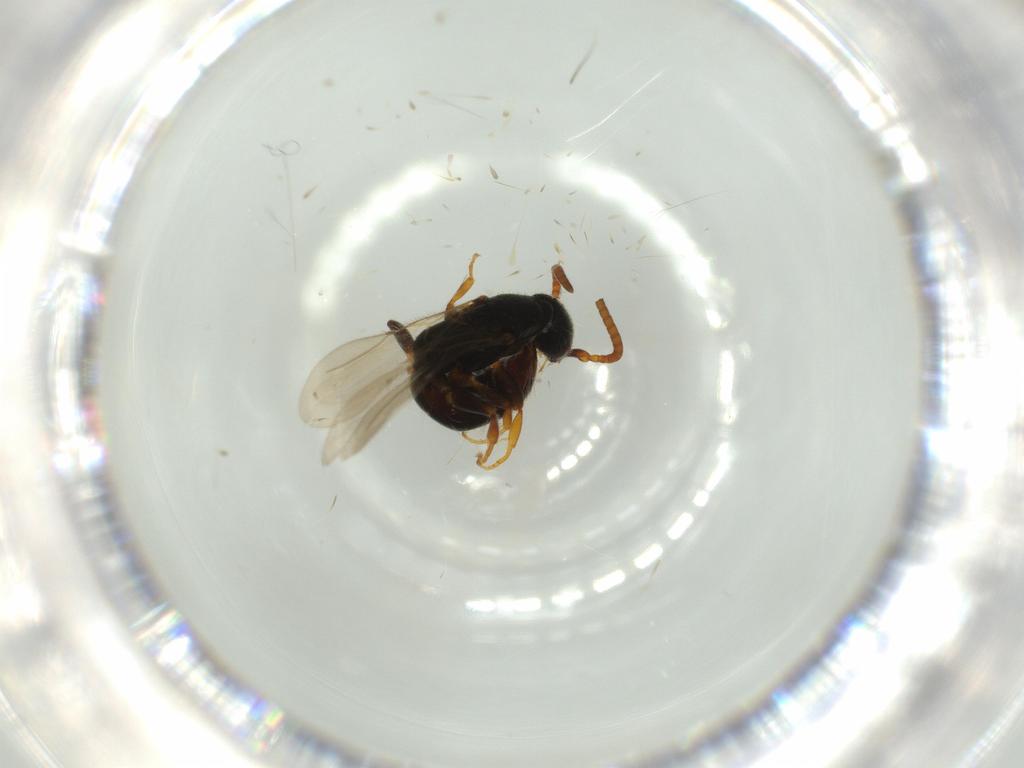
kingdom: Animalia
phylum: Arthropoda
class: Insecta
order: Hymenoptera
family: Bethylidae
